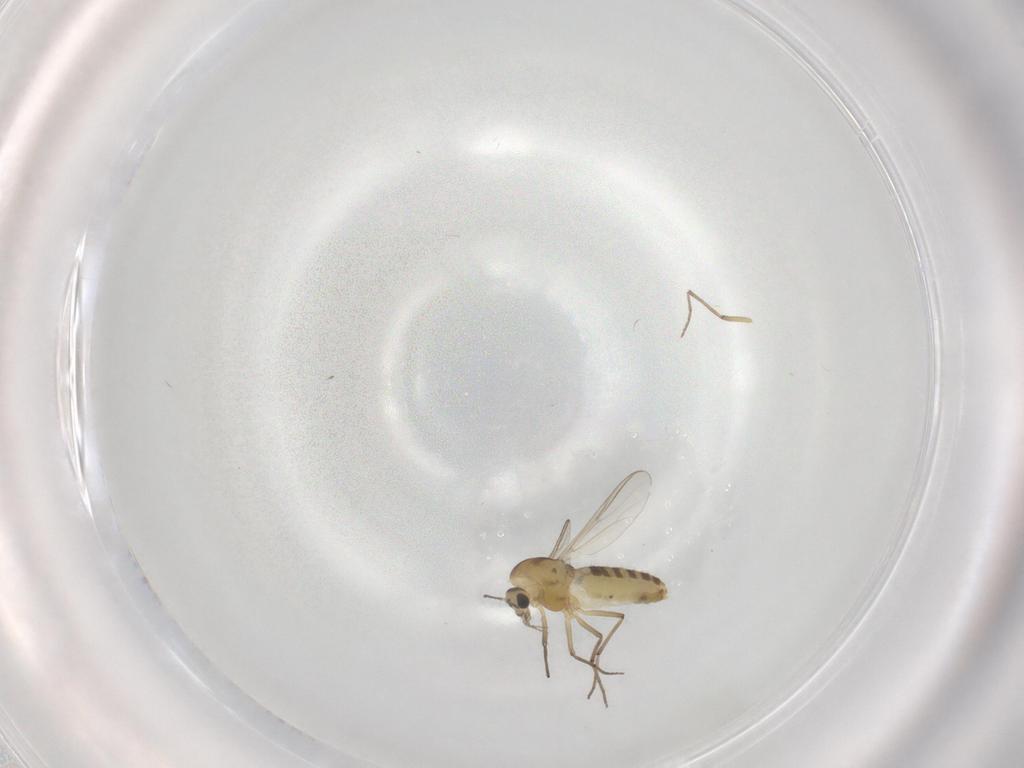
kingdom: Animalia
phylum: Arthropoda
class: Insecta
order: Diptera
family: Chironomidae
